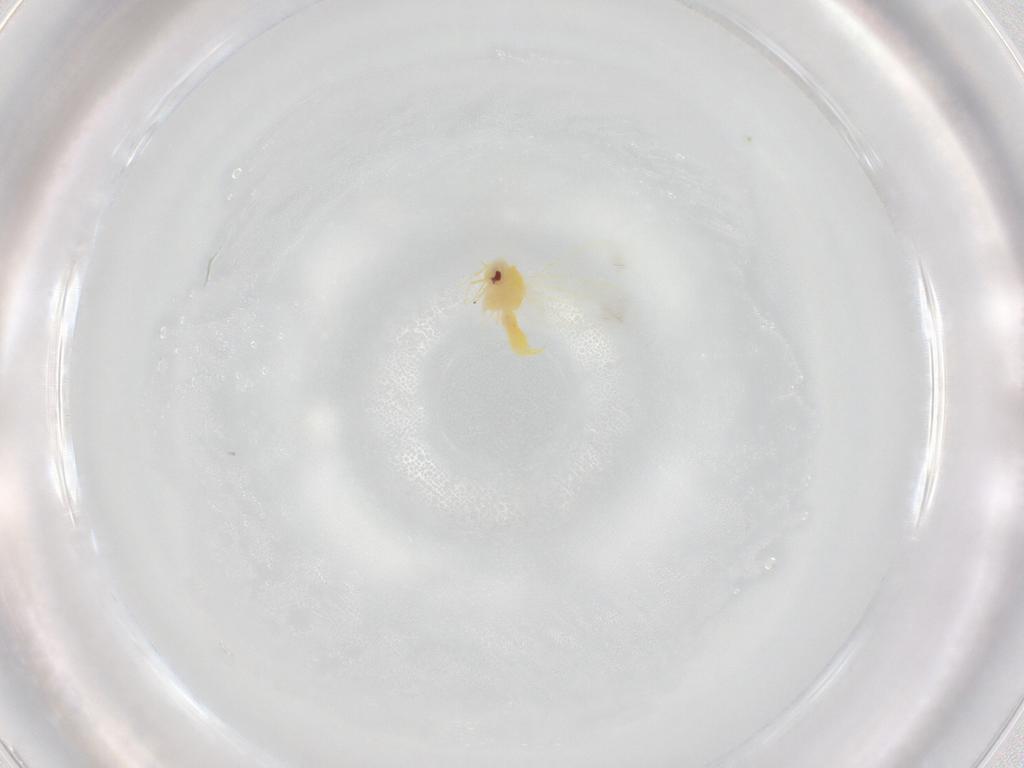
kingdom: Animalia
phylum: Arthropoda
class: Insecta
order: Hemiptera
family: Aleyrodidae
